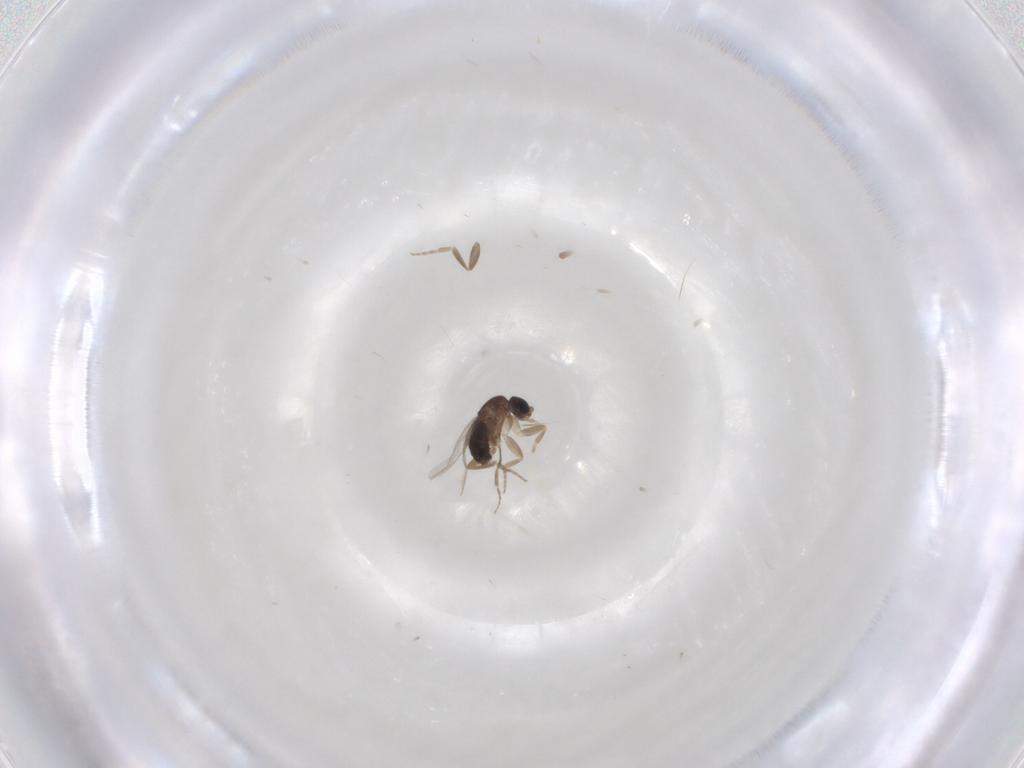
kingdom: Animalia
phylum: Arthropoda
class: Insecta
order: Diptera
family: Phoridae
